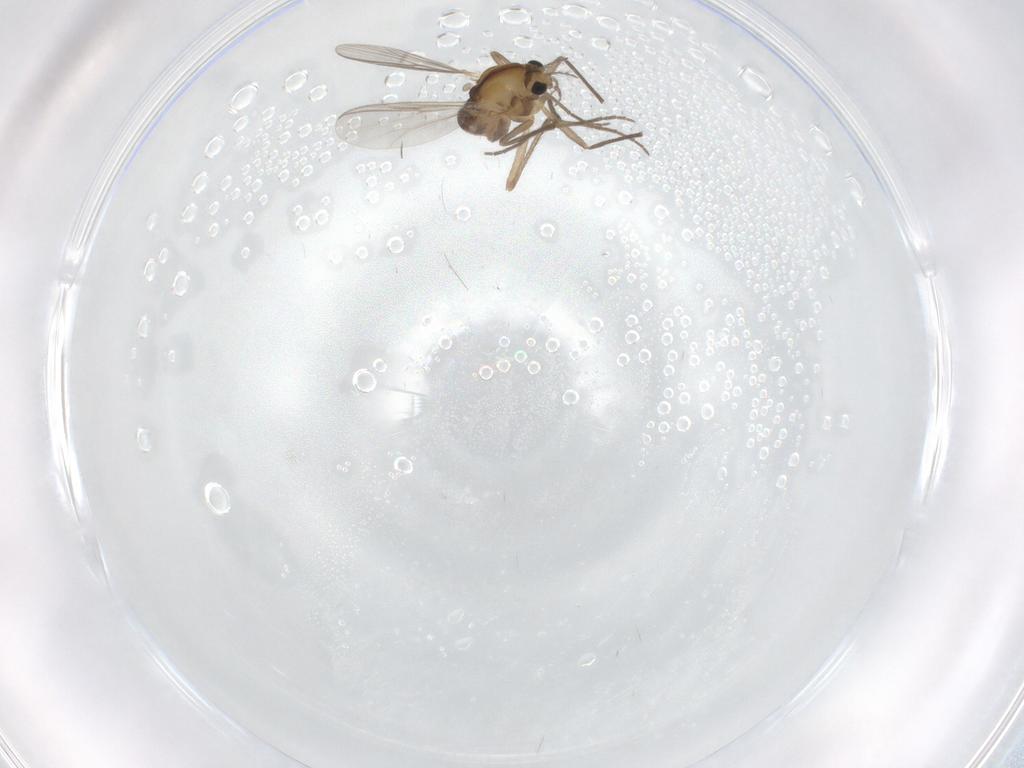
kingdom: Animalia
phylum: Arthropoda
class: Insecta
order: Diptera
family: Chironomidae
